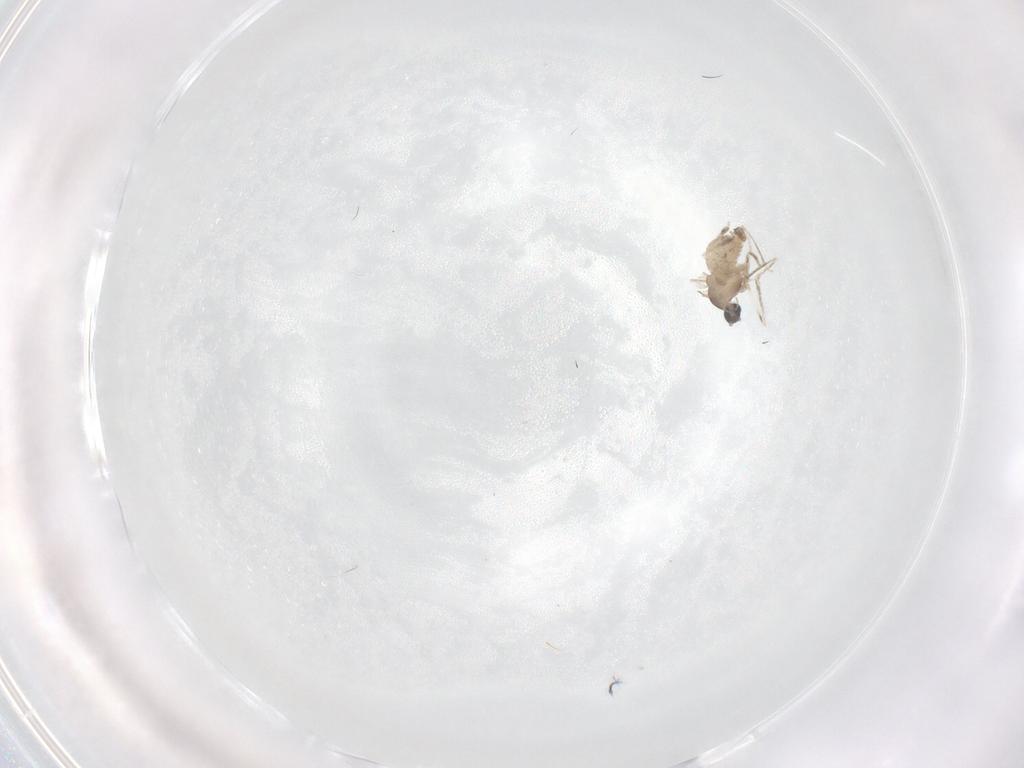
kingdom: Animalia
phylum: Arthropoda
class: Insecta
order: Diptera
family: Cecidomyiidae
